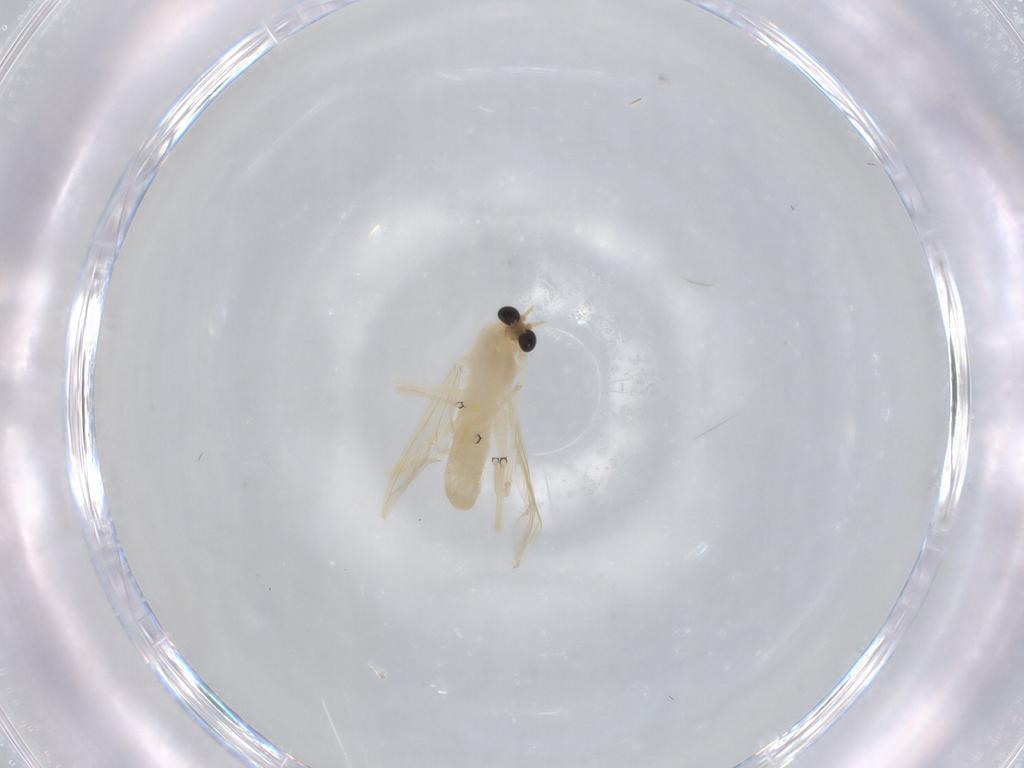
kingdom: Animalia
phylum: Arthropoda
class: Insecta
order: Diptera
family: Chironomidae
